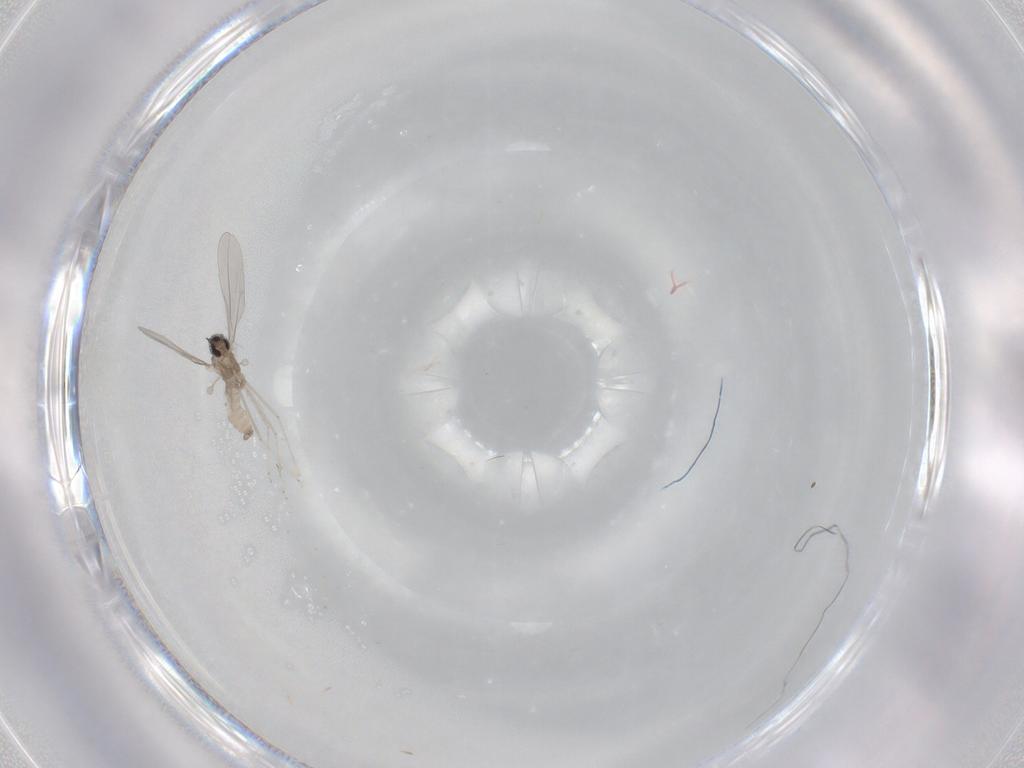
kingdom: Animalia
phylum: Arthropoda
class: Insecta
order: Diptera
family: Cecidomyiidae
